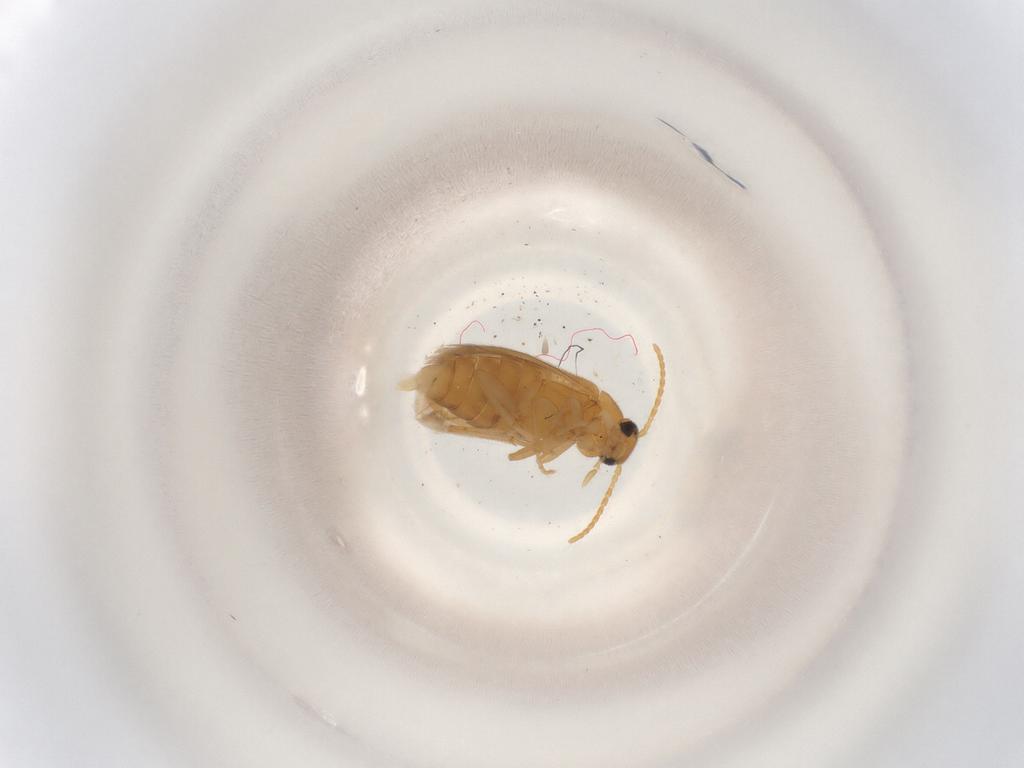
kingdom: Animalia
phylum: Arthropoda
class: Insecta
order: Coleoptera
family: Scraptiidae
